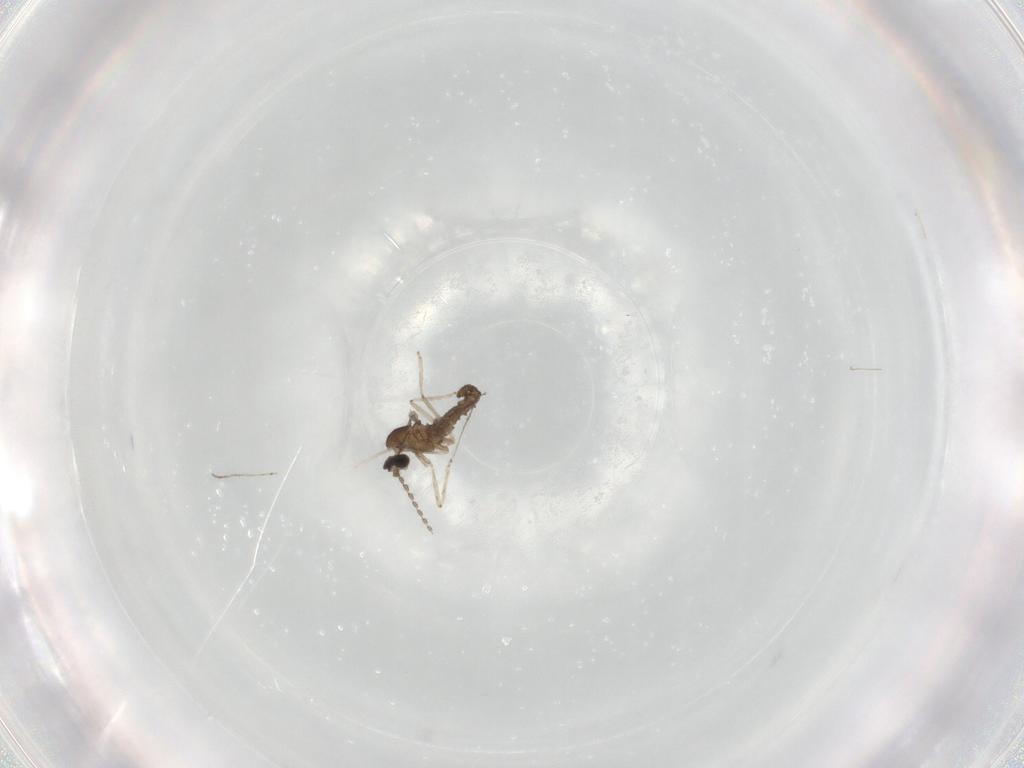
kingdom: Animalia
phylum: Arthropoda
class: Insecta
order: Diptera
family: Cecidomyiidae
